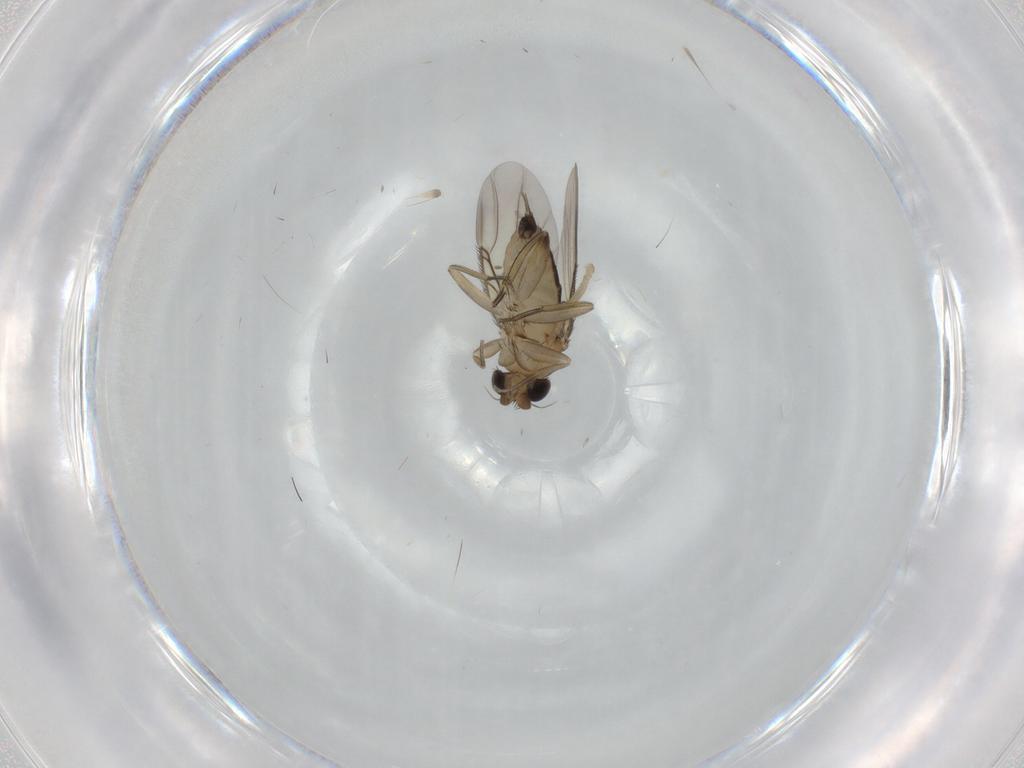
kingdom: Animalia
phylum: Arthropoda
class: Insecta
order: Diptera
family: Phoridae
